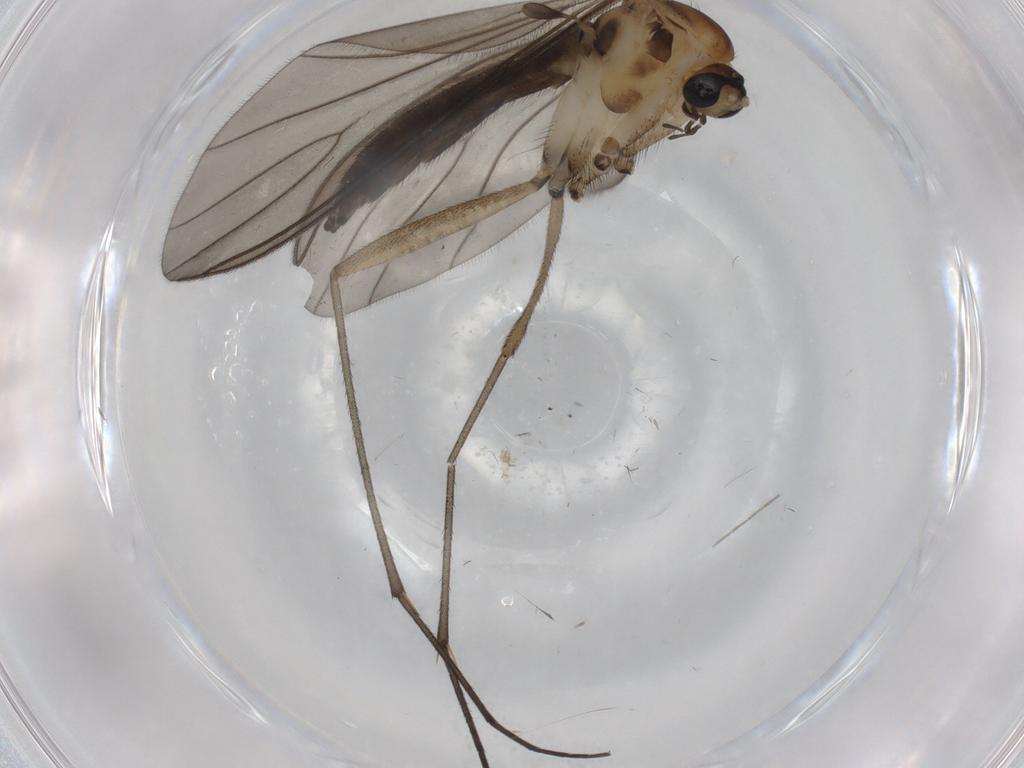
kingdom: Animalia
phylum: Arthropoda
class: Insecta
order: Diptera
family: Sciaridae
